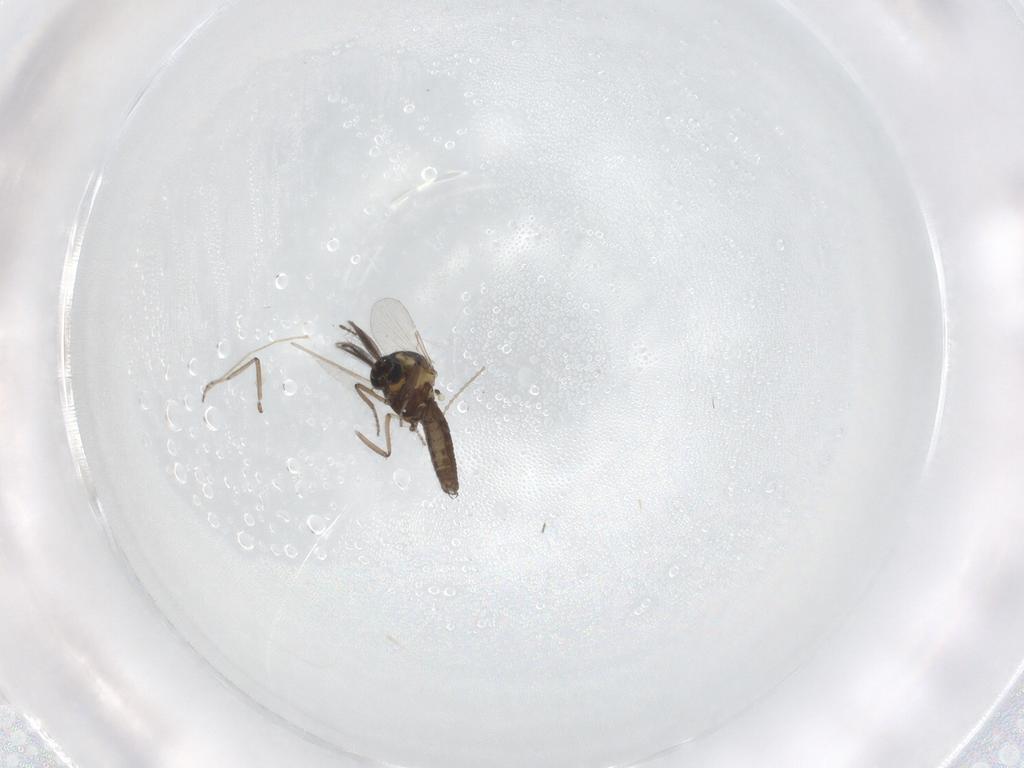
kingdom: Animalia
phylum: Arthropoda
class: Insecta
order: Diptera
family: Ceratopogonidae
